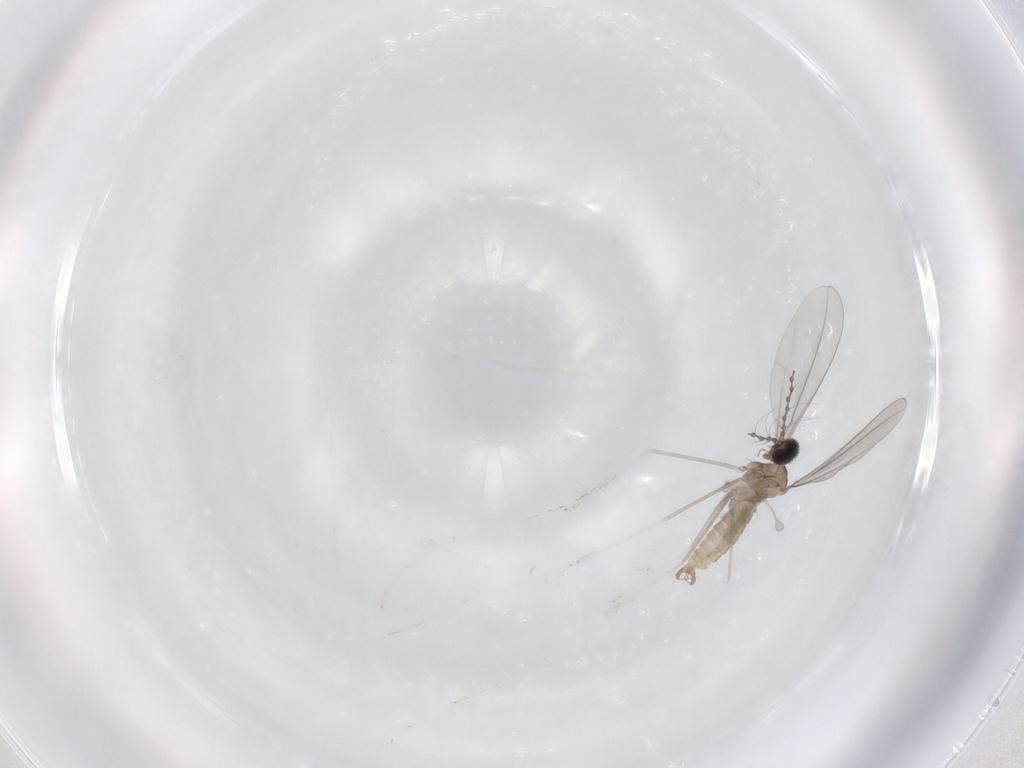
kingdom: Animalia
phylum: Arthropoda
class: Insecta
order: Diptera
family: Cecidomyiidae
